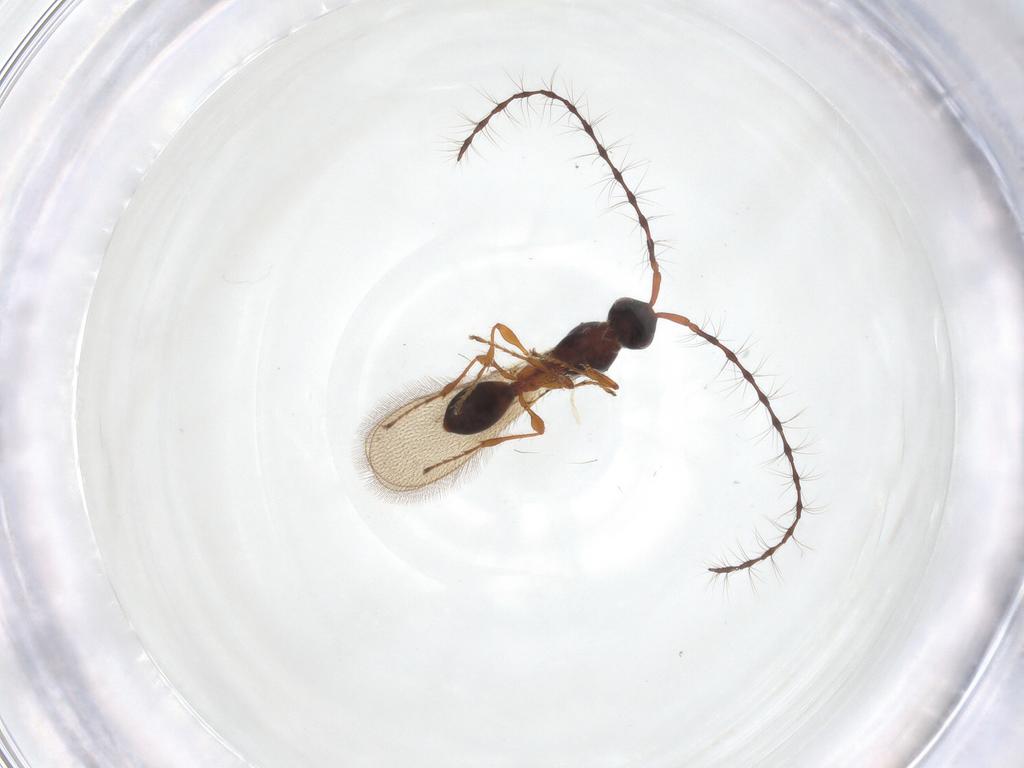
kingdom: Animalia
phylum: Arthropoda
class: Insecta
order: Hymenoptera
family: Diapriidae
